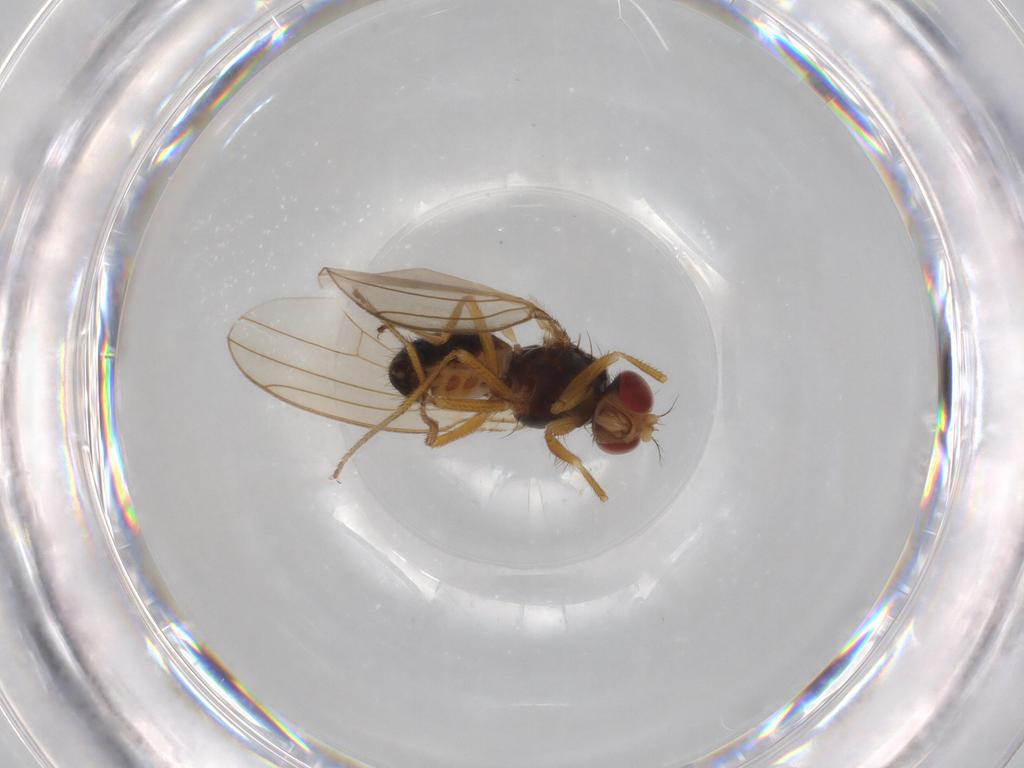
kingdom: Animalia
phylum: Arthropoda
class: Insecta
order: Diptera
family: Drosophilidae
